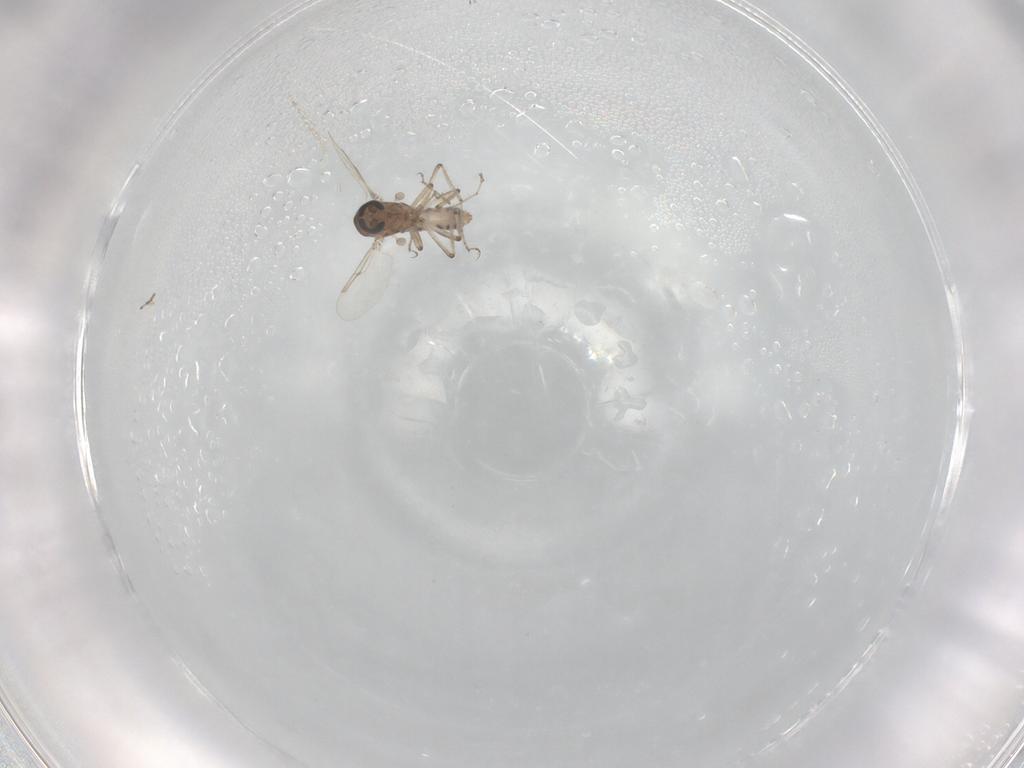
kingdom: Animalia
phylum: Arthropoda
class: Insecta
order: Diptera
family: Ceratopogonidae
